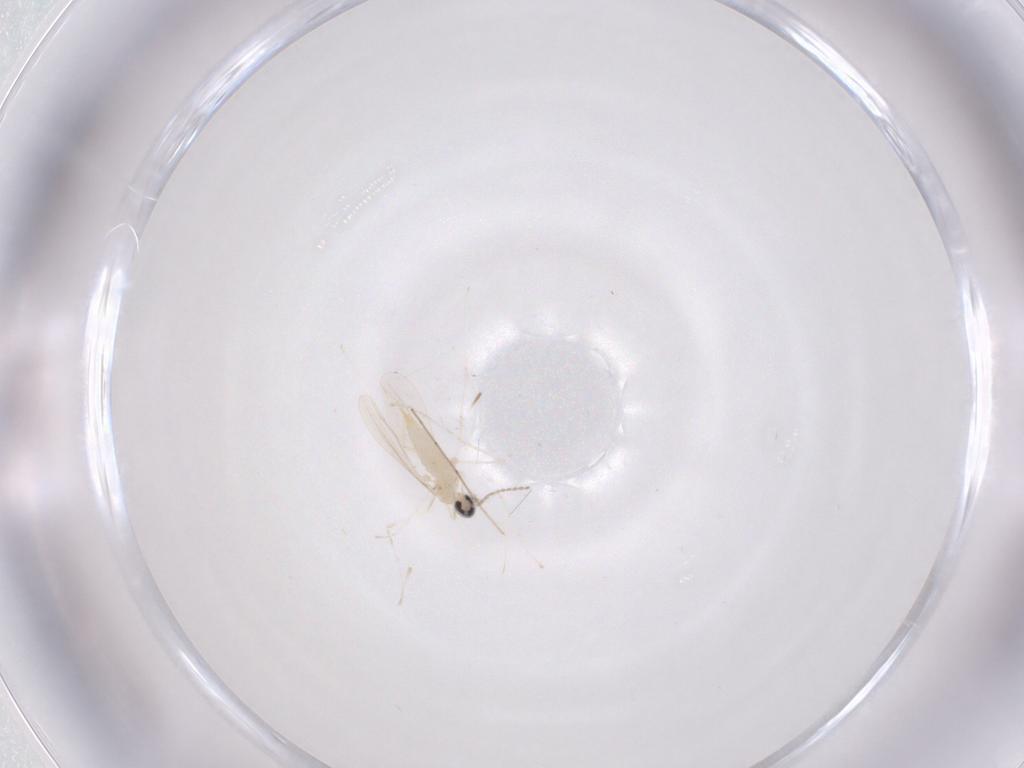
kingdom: Animalia
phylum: Arthropoda
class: Insecta
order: Diptera
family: Cecidomyiidae
